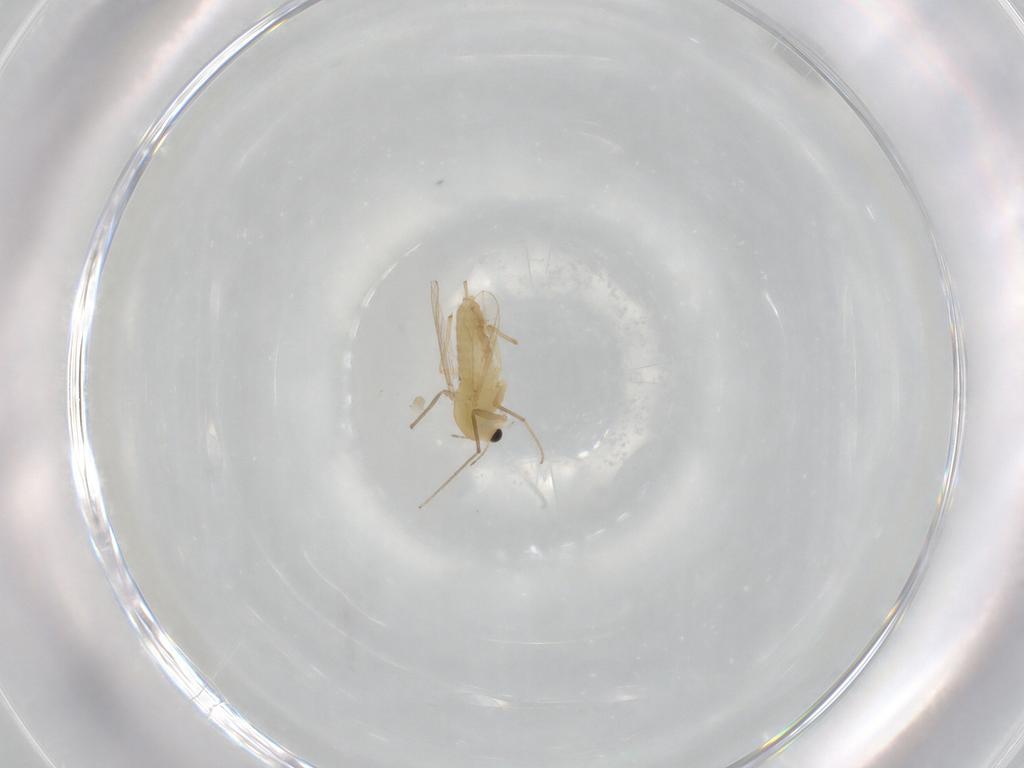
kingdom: Animalia
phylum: Arthropoda
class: Insecta
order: Diptera
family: Chironomidae
